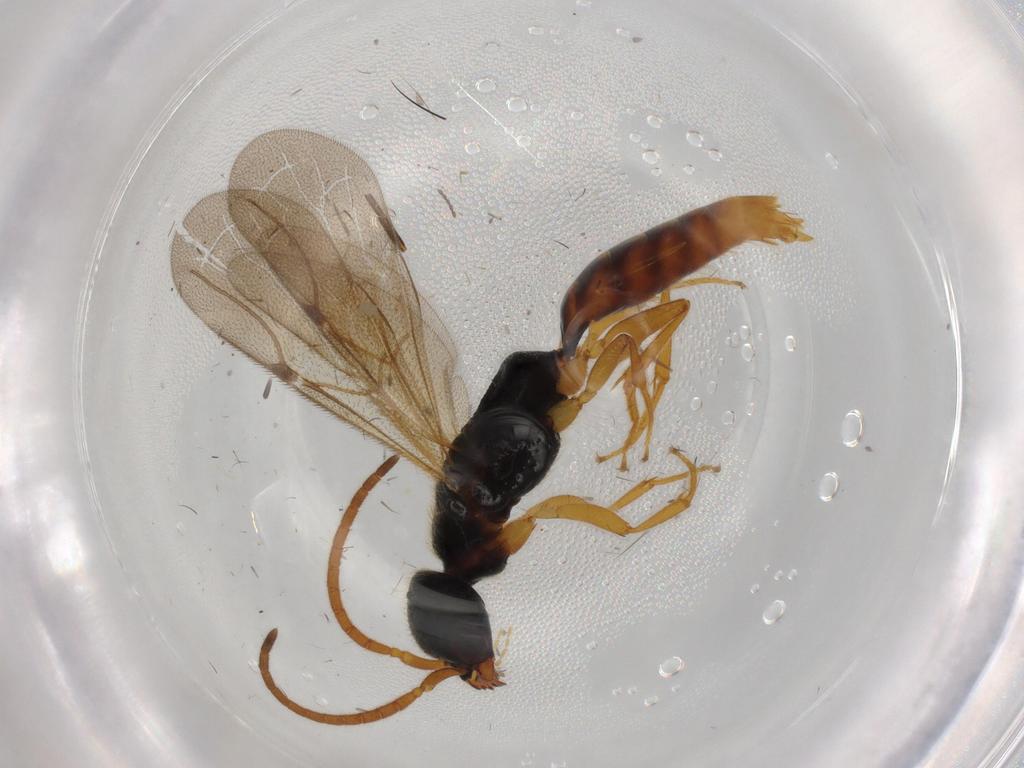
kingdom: Animalia
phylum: Arthropoda
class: Insecta
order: Hymenoptera
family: Bethylidae
